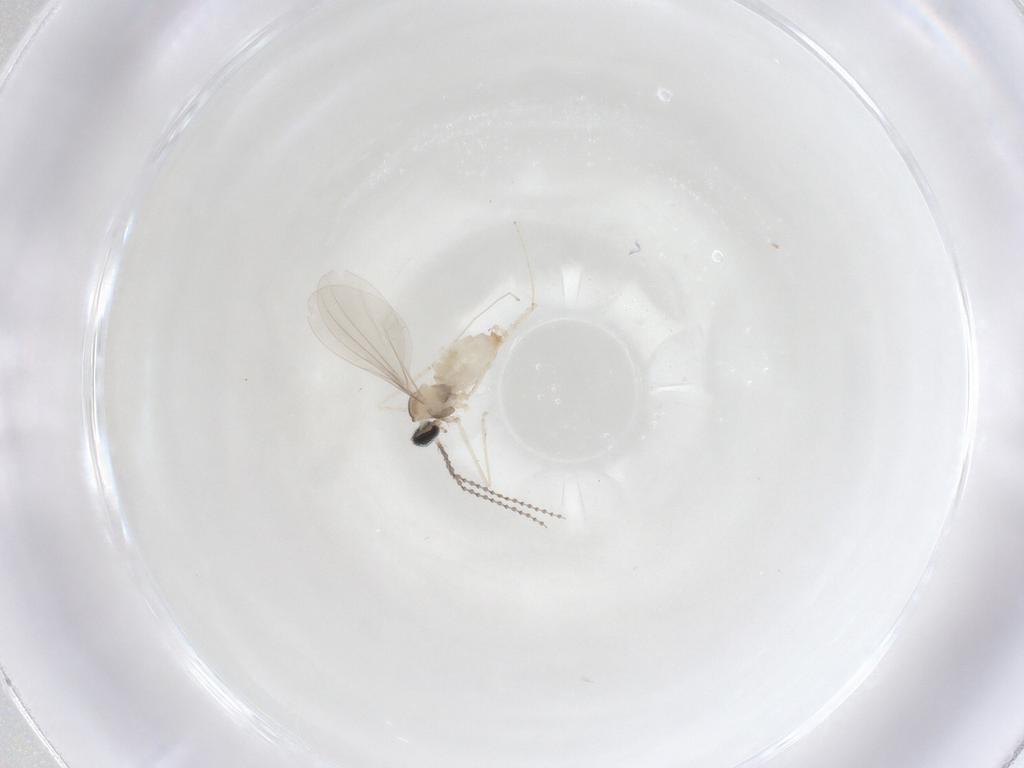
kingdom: Animalia
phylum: Arthropoda
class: Insecta
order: Diptera
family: Cecidomyiidae
